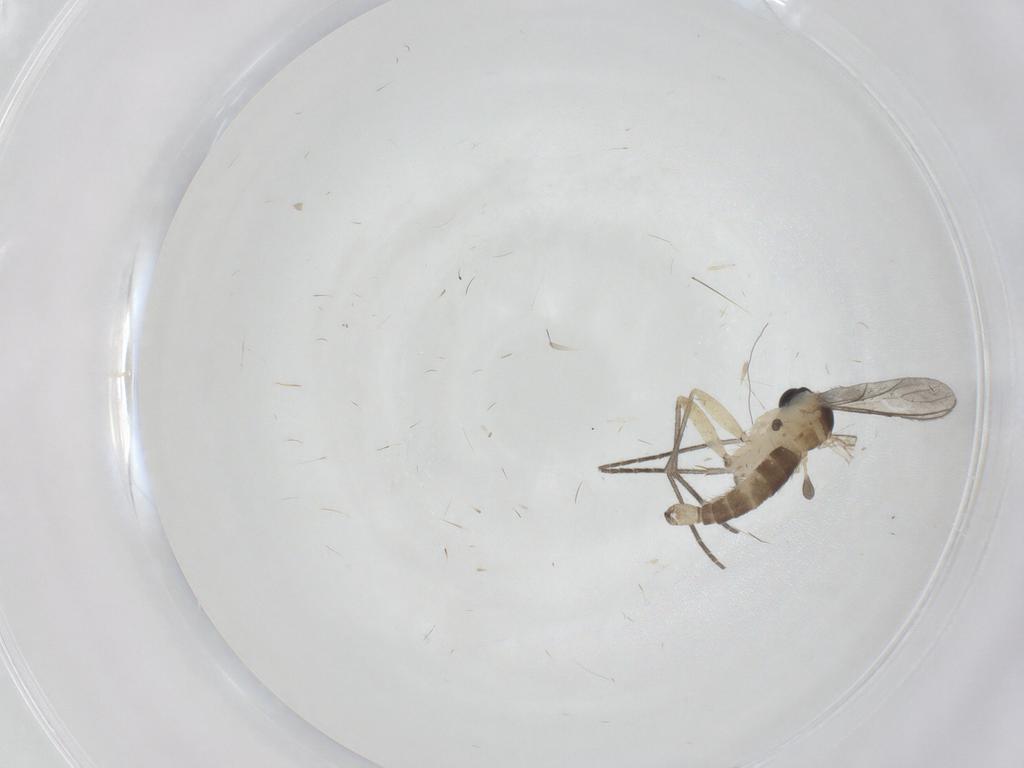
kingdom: Animalia
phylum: Arthropoda
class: Insecta
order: Diptera
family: Sciaridae
